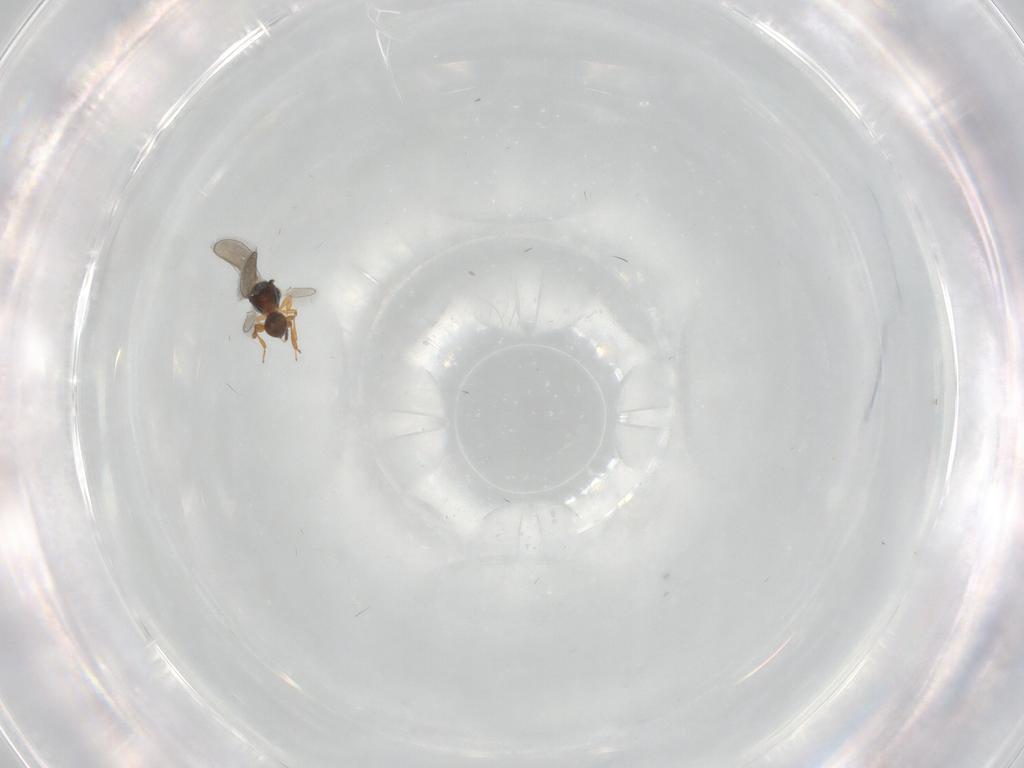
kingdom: Animalia
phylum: Arthropoda
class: Insecta
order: Hymenoptera
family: Platygastridae
